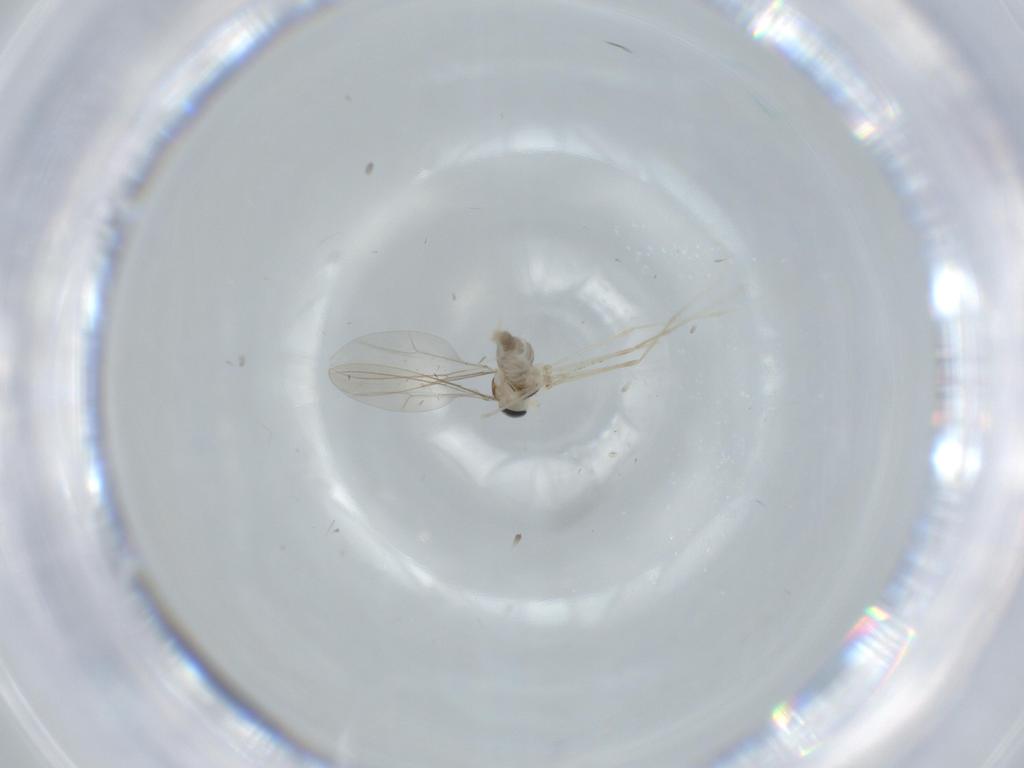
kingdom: Animalia
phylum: Arthropoda
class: Insecta
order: Diptera
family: Cecidomyiidae
